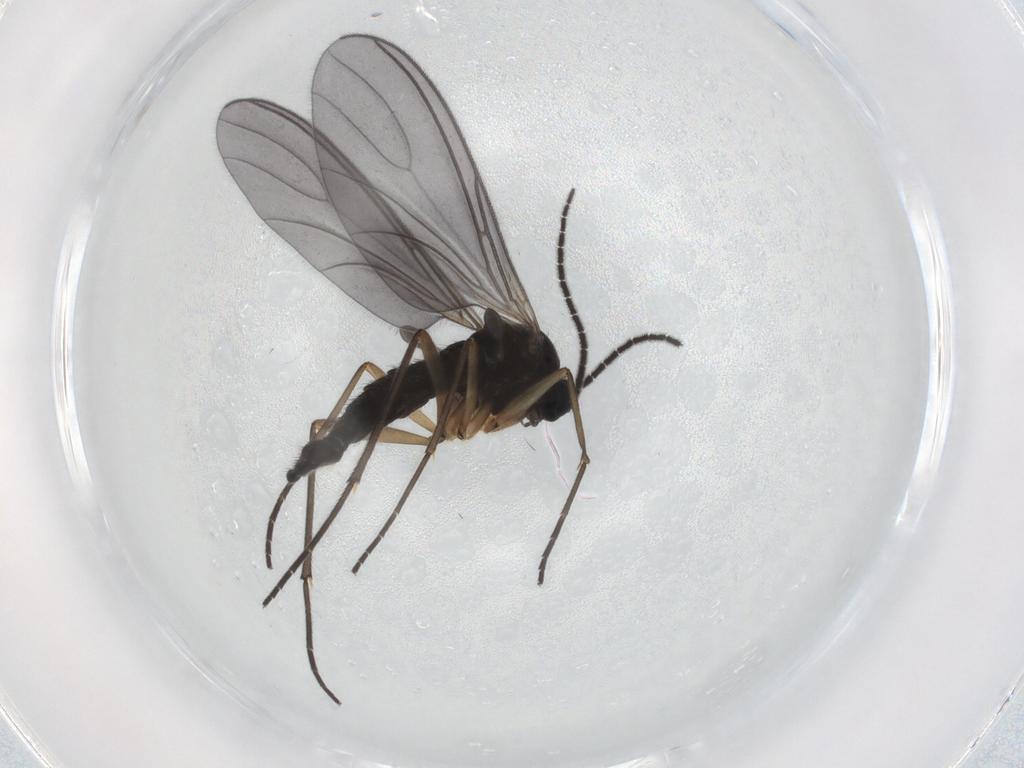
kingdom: Animalia
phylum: Arthropoda
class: Insecta
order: Diptera
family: Sciaridae
